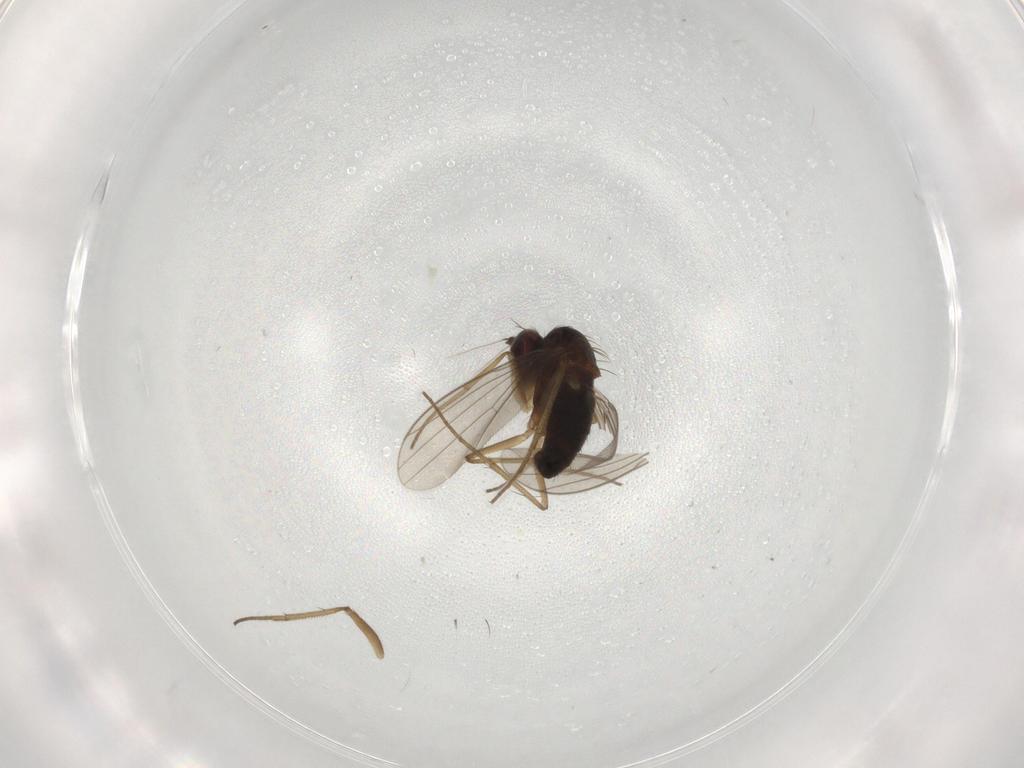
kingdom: Animalia
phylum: Arthropoda
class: Insecta
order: Diptera
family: Dolichopodidae
